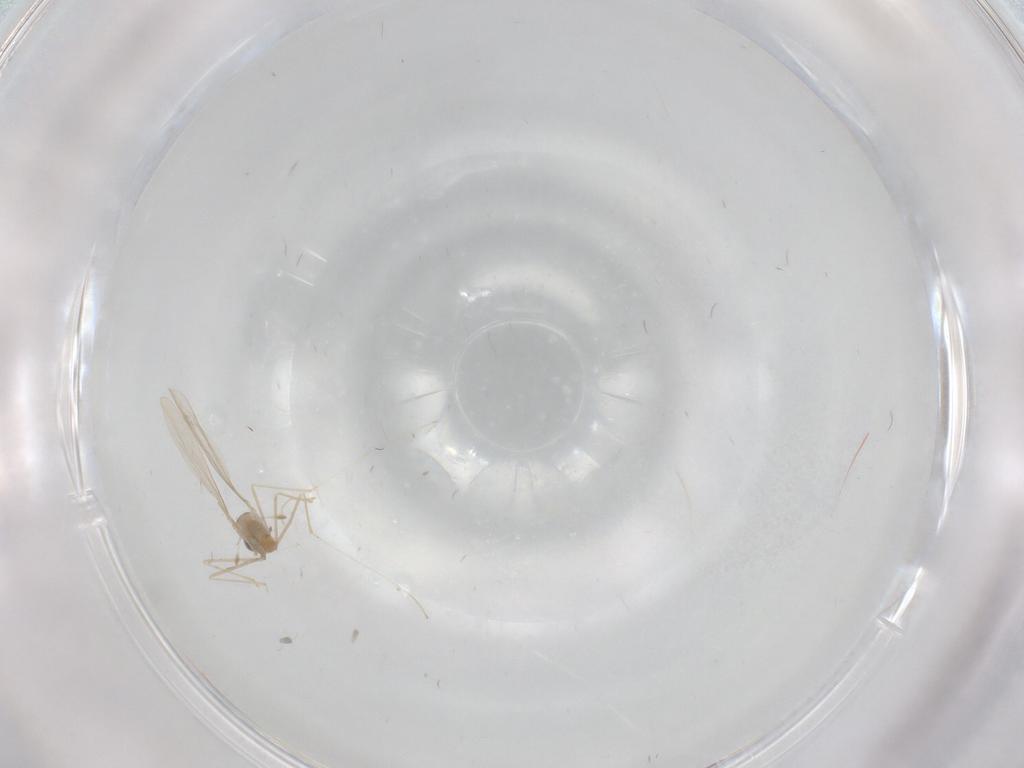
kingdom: Animalia
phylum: Arthropoda
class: Insecta
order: Diptera
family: Cecidomyiidae
